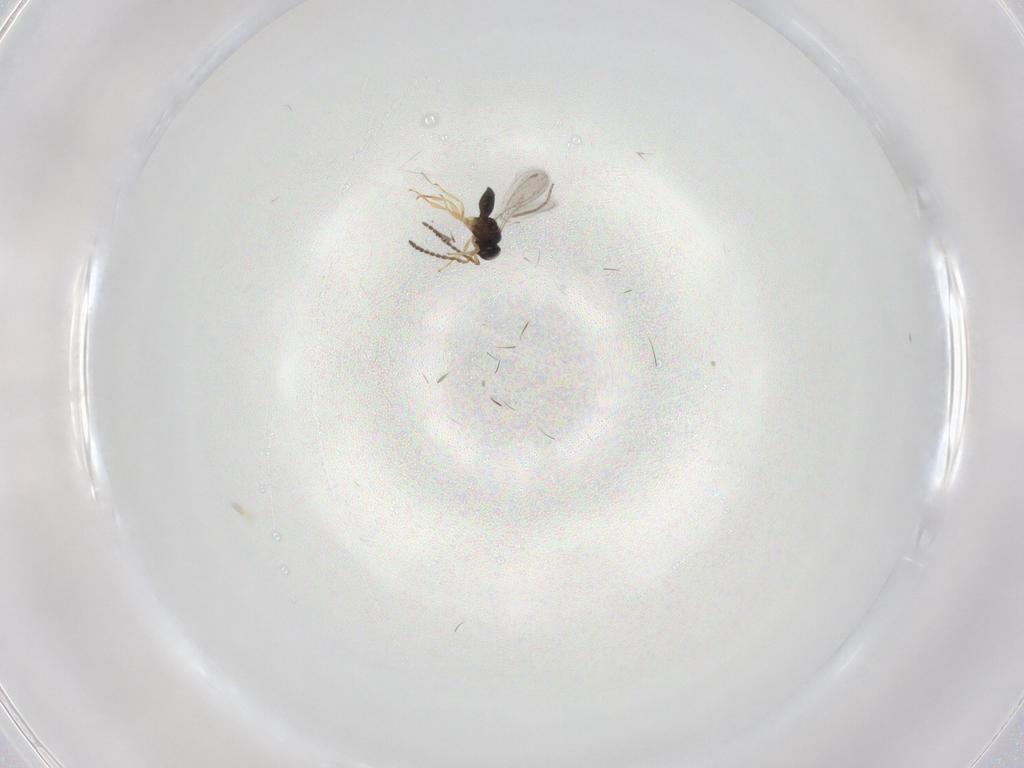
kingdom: Animalia
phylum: Arthropoda
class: Insecta
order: Hymenoptera
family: Scelionidae
